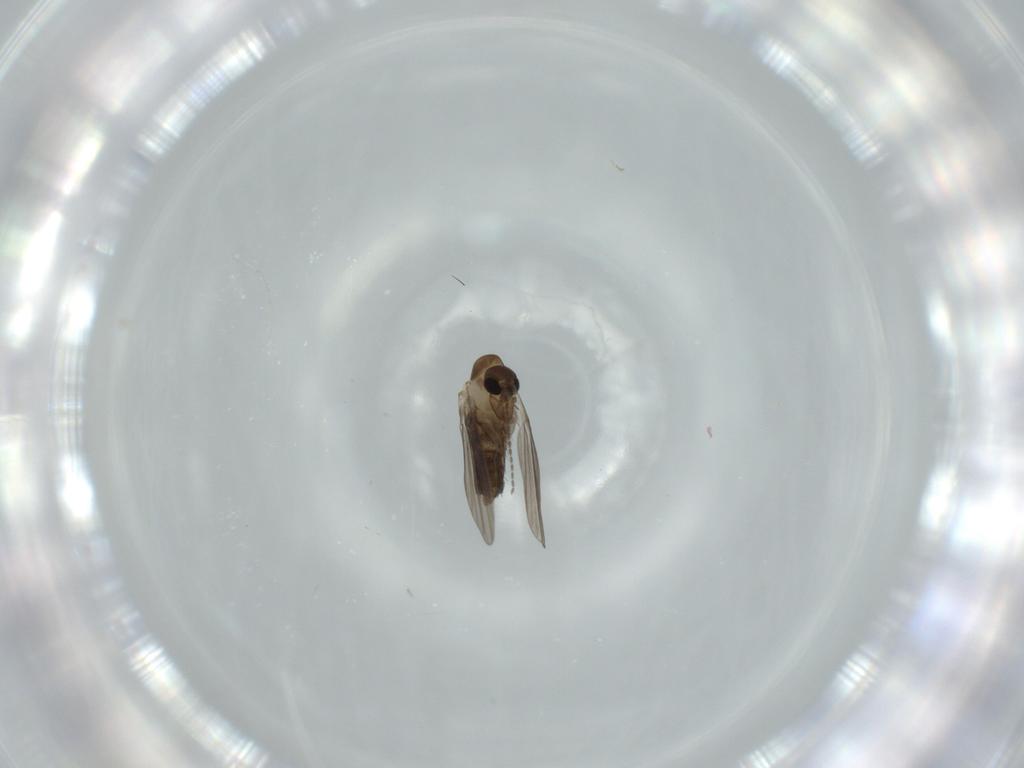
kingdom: Animalia
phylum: Arthropoda
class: Insecta
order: Diptera
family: Psychodidae
